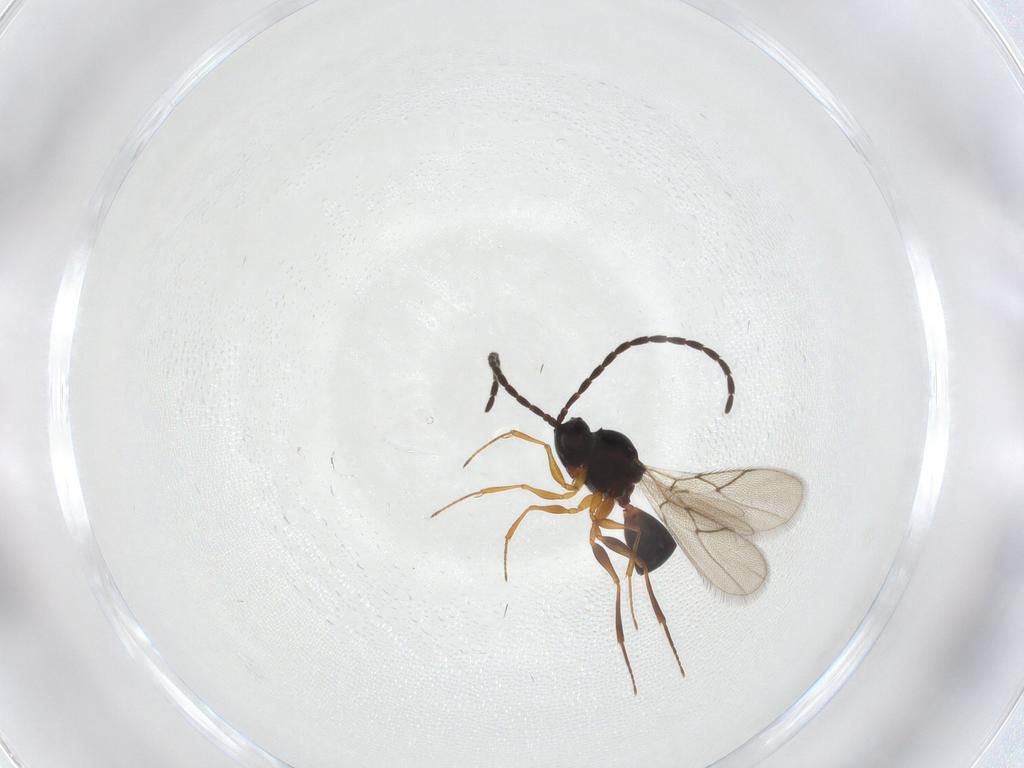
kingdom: Animalia
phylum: Arthropoda
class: Insecta
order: Hymenoptera
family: Figitidae
